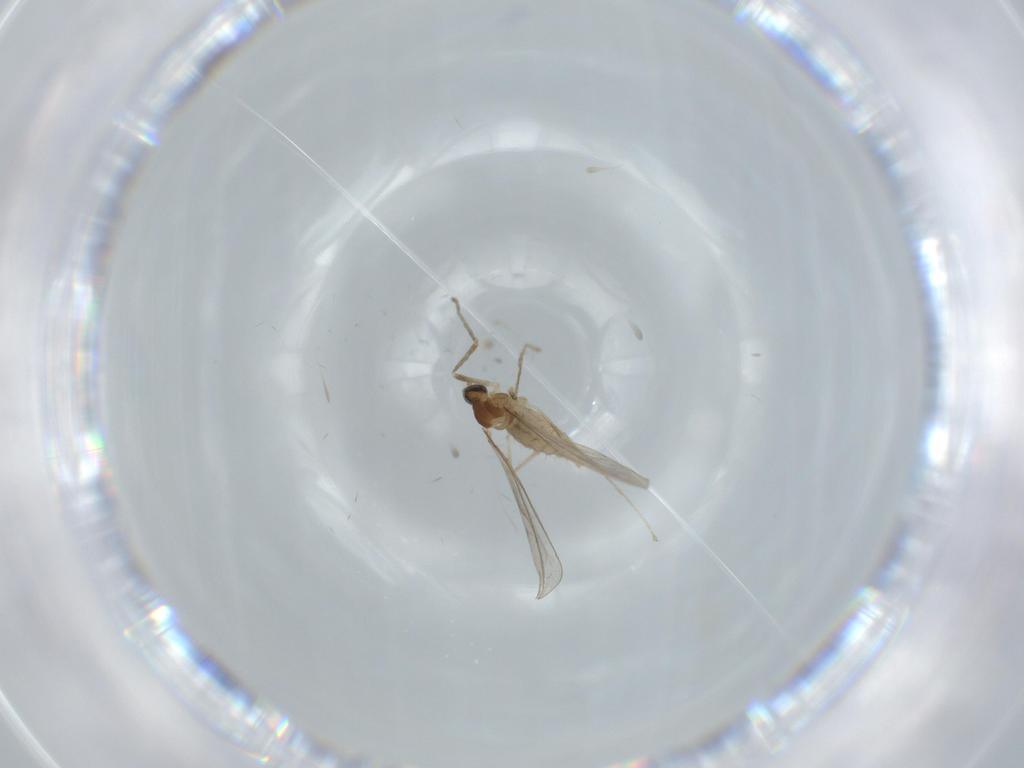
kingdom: Animalia
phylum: Arthropoda
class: Insecta
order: Diptera
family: Cecidomyiidae
